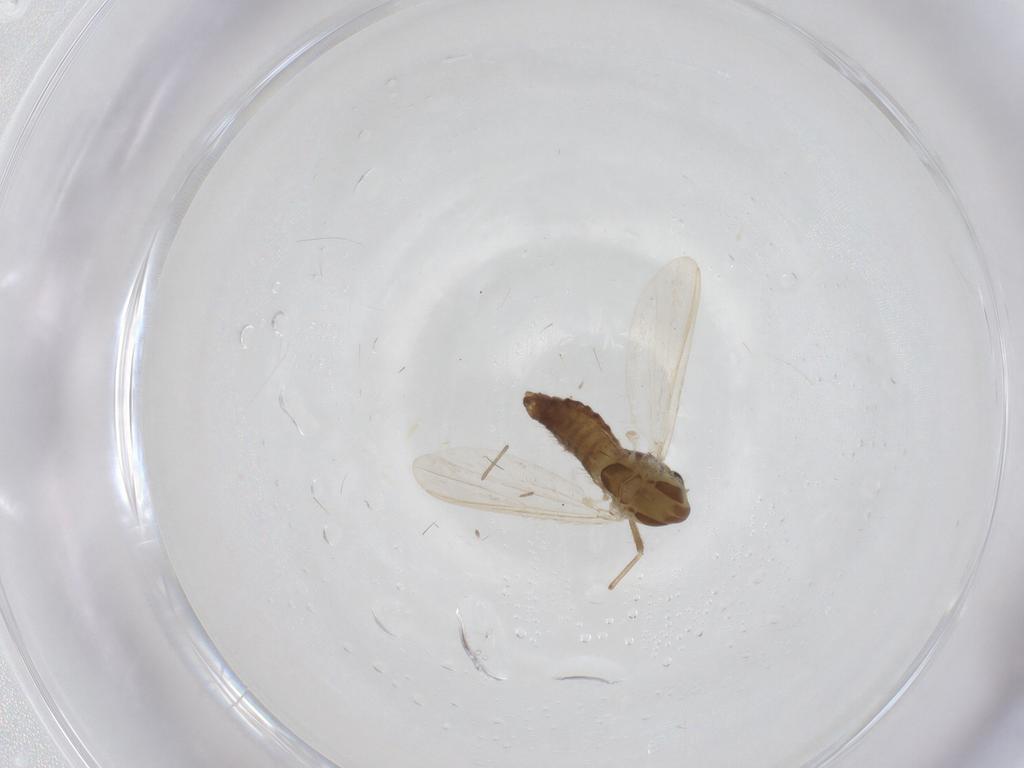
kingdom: Animalia
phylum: Arthropoda
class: Insecta
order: Diptera
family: Chironomidae
